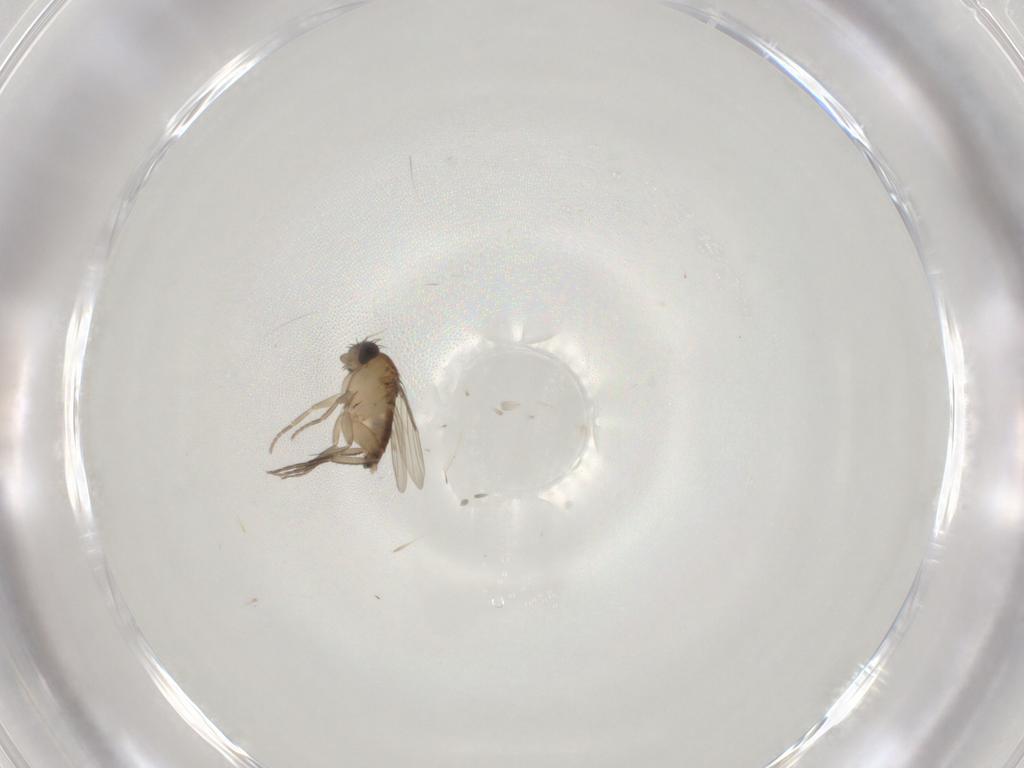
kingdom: Animalia
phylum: Arthropoda
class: Insecta
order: Diptera
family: Phoridae
